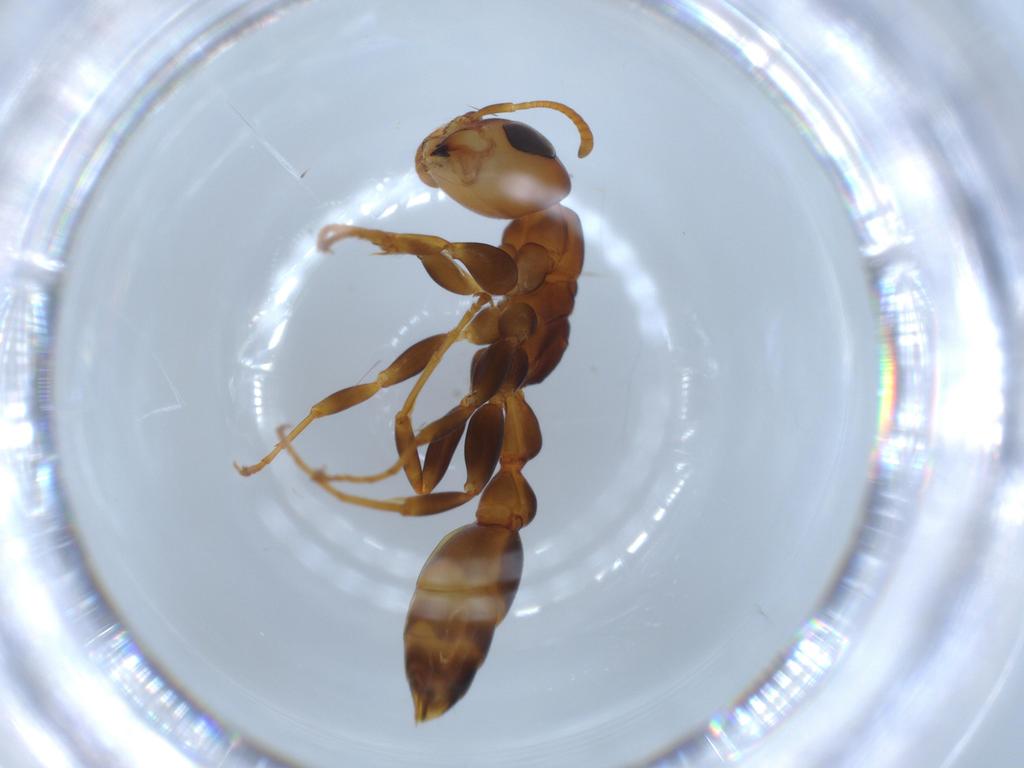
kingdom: Animalia
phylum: Arthropoda
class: Insecta
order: Hymenoptera
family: Formicidae
